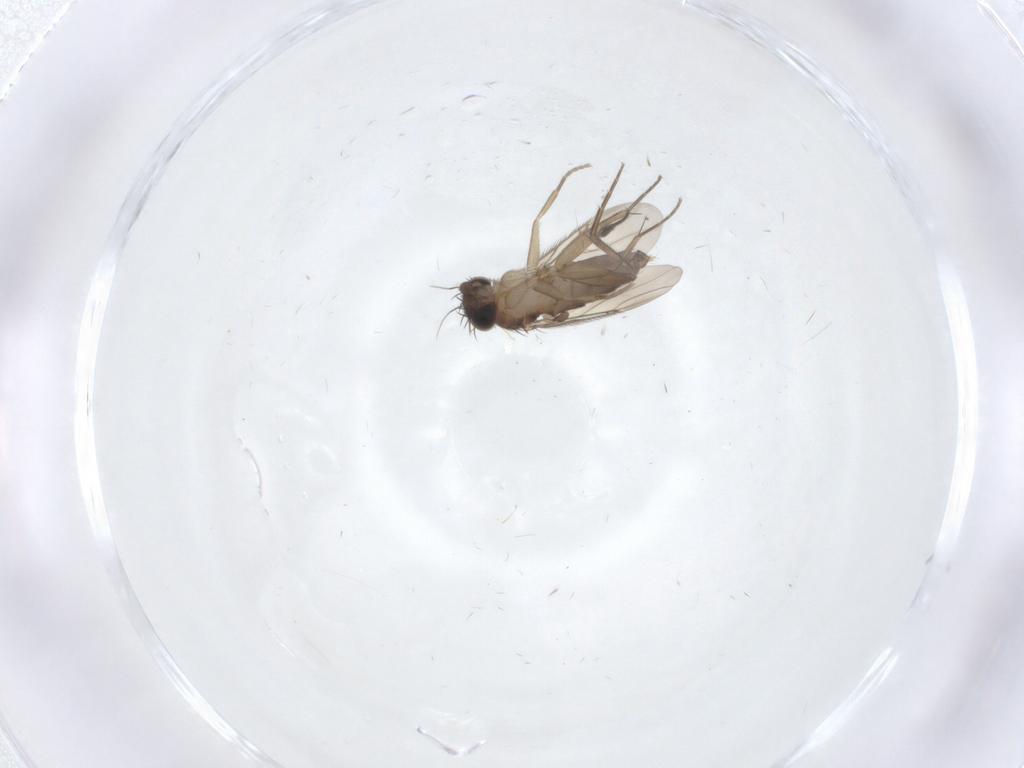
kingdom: Animalia
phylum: Arthropoda
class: Insecta
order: Diptera
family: Phoridae
